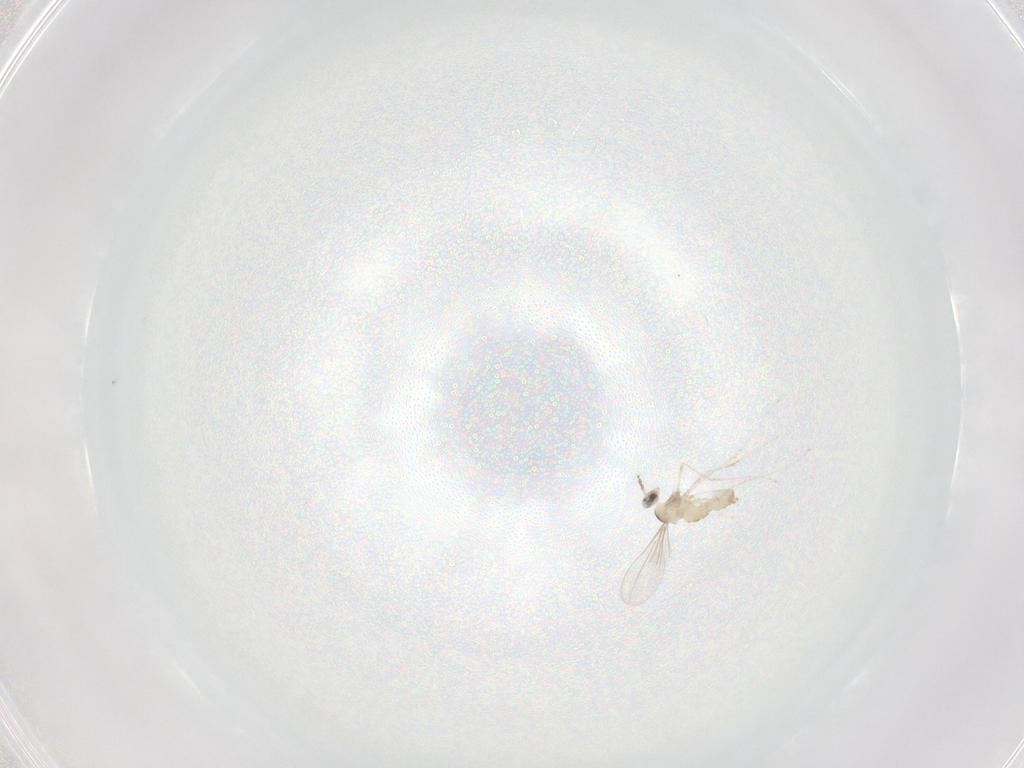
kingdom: Animalia
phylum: Arthropoda
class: Insecta
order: Diptera
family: Cecidomyiidae
